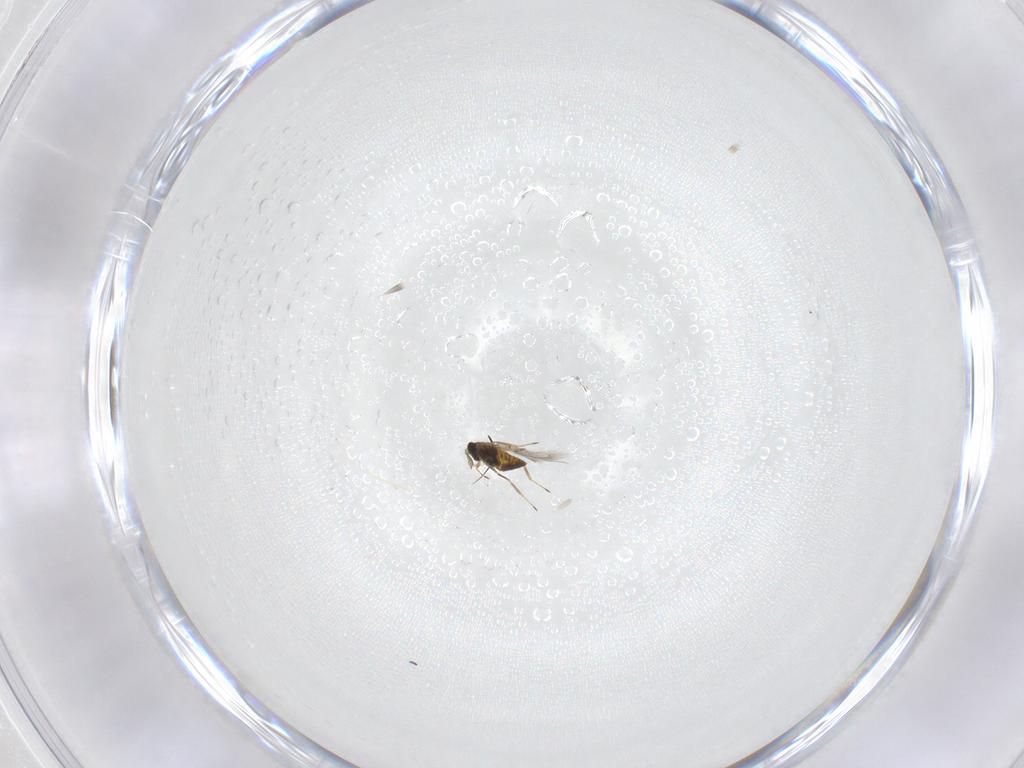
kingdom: Animalia
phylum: Arthropoda
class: Insecta
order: Hymenoptera
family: Trichogrammatidae
